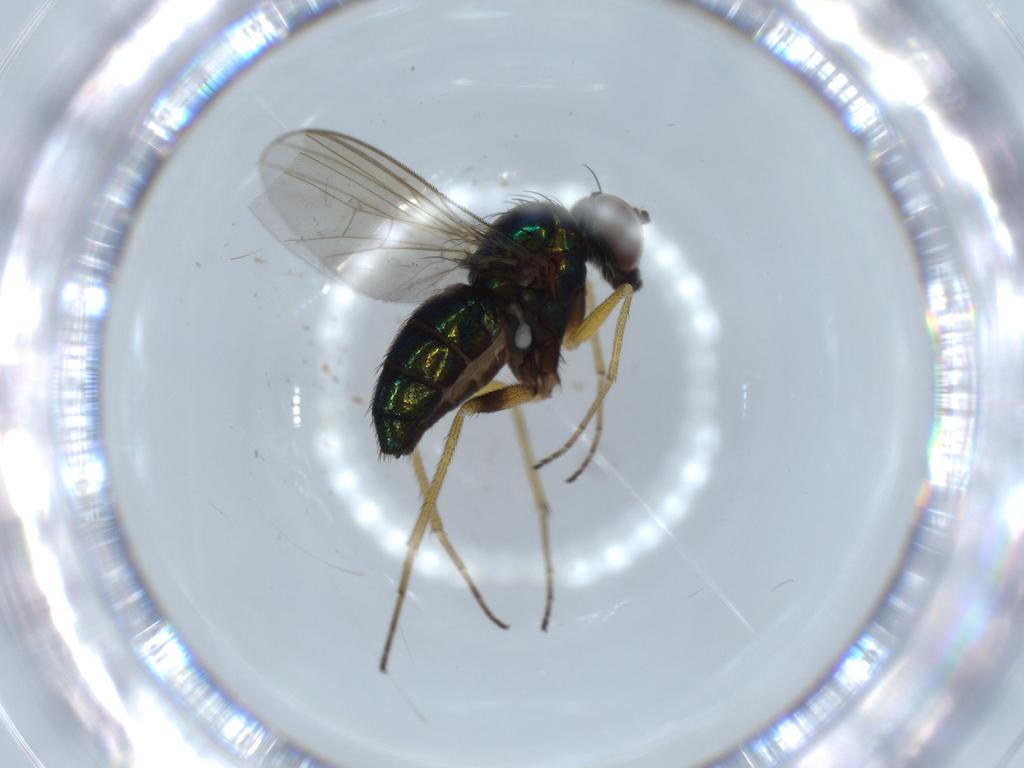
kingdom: Animalia
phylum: Arthropoda
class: Insecta
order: Diptera
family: Dolichopodidae
